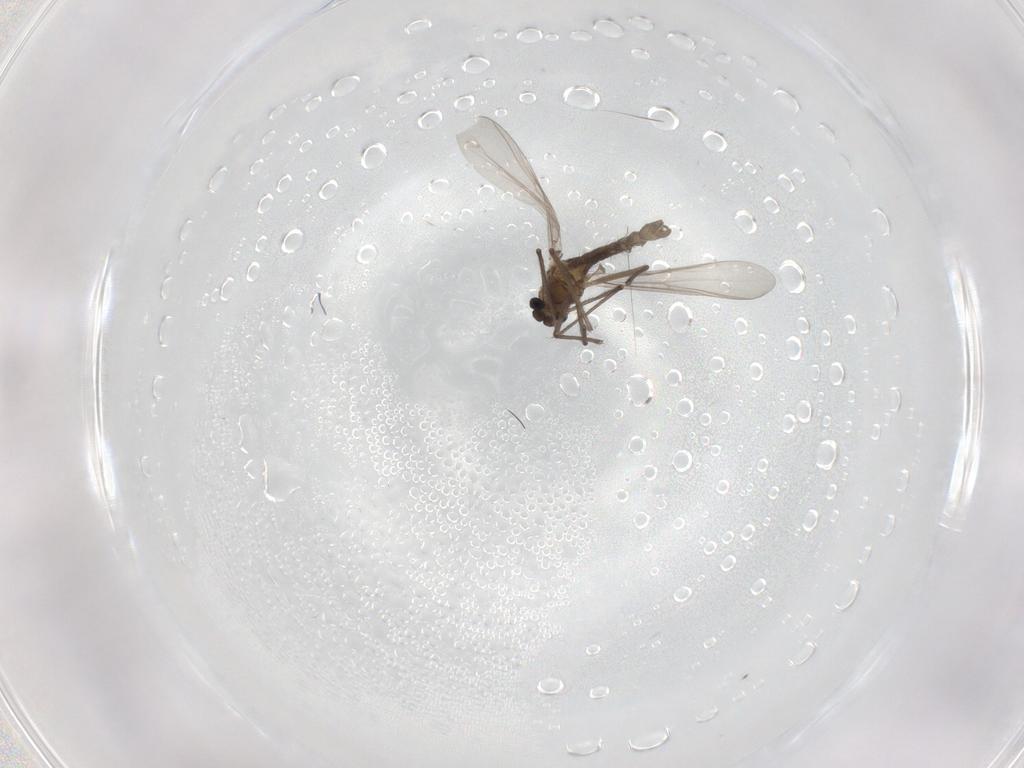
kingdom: Animalia
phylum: Arthropoda
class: Insecta
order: Diptera
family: Chironomidae
